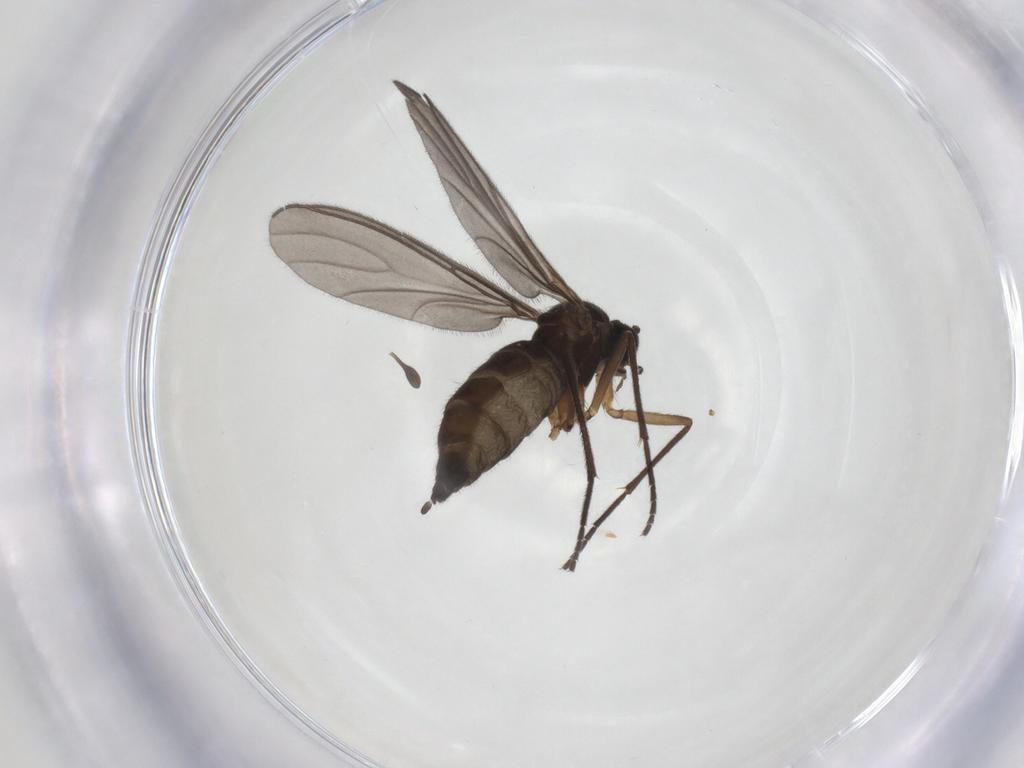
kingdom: Animalia
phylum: Arthropoda
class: Insecta
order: Diptera
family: Sciaridae
